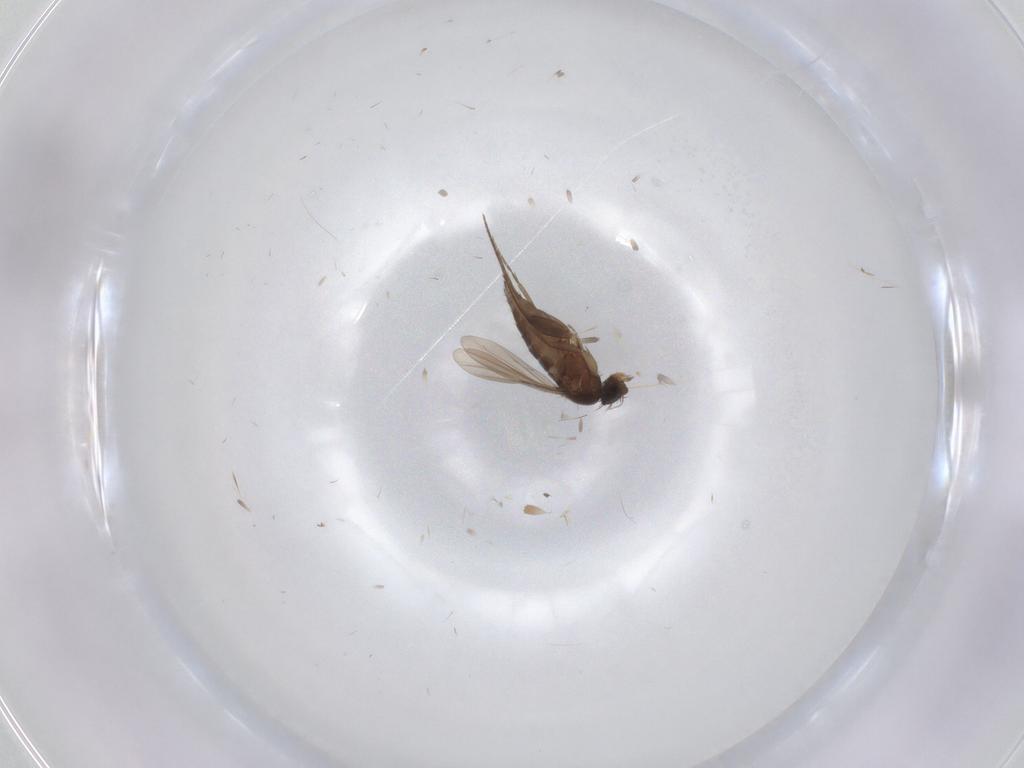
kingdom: Animalia
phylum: Arthropoda
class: Insecta
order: Diptera
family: Phoridae
